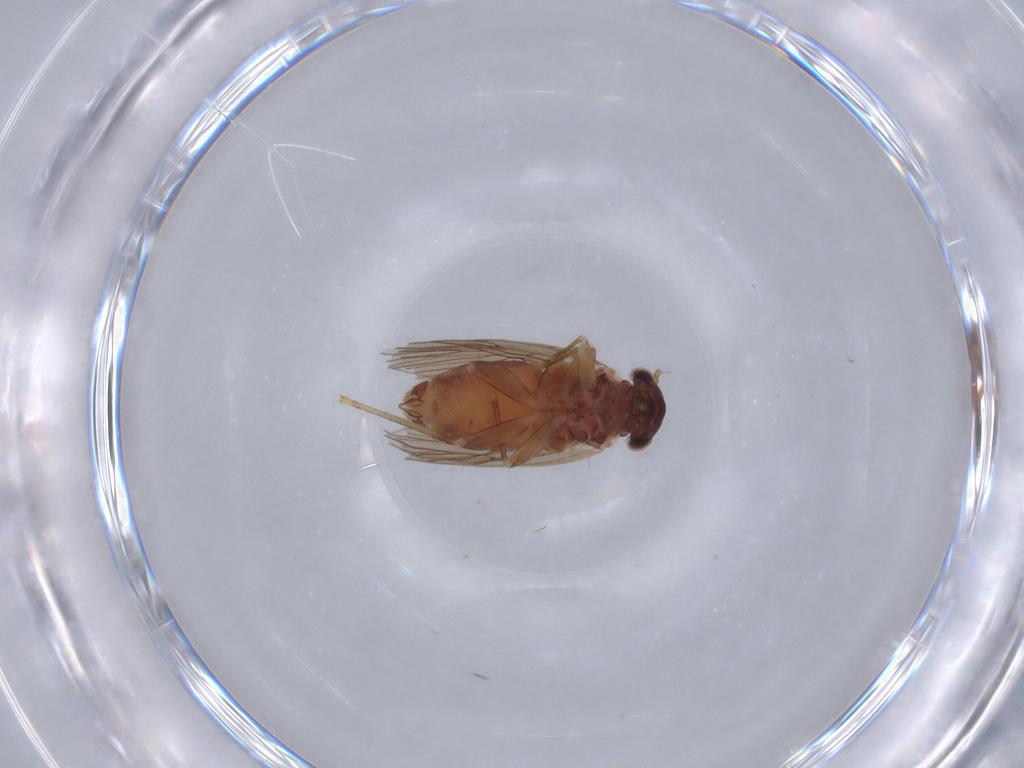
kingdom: Animalia
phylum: Arthropoda
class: Insecta
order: Psocodea
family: Lepidopsocidae
